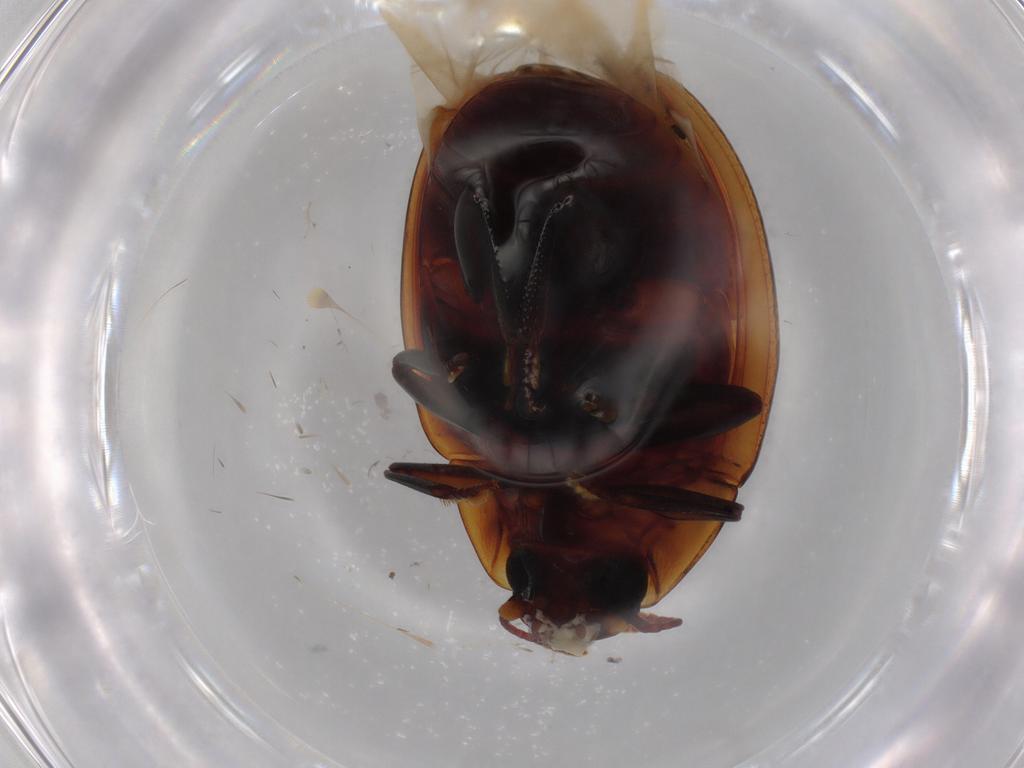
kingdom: Animalia
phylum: Arthropoda
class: Insecta
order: Coleoptera
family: Zopheridae
